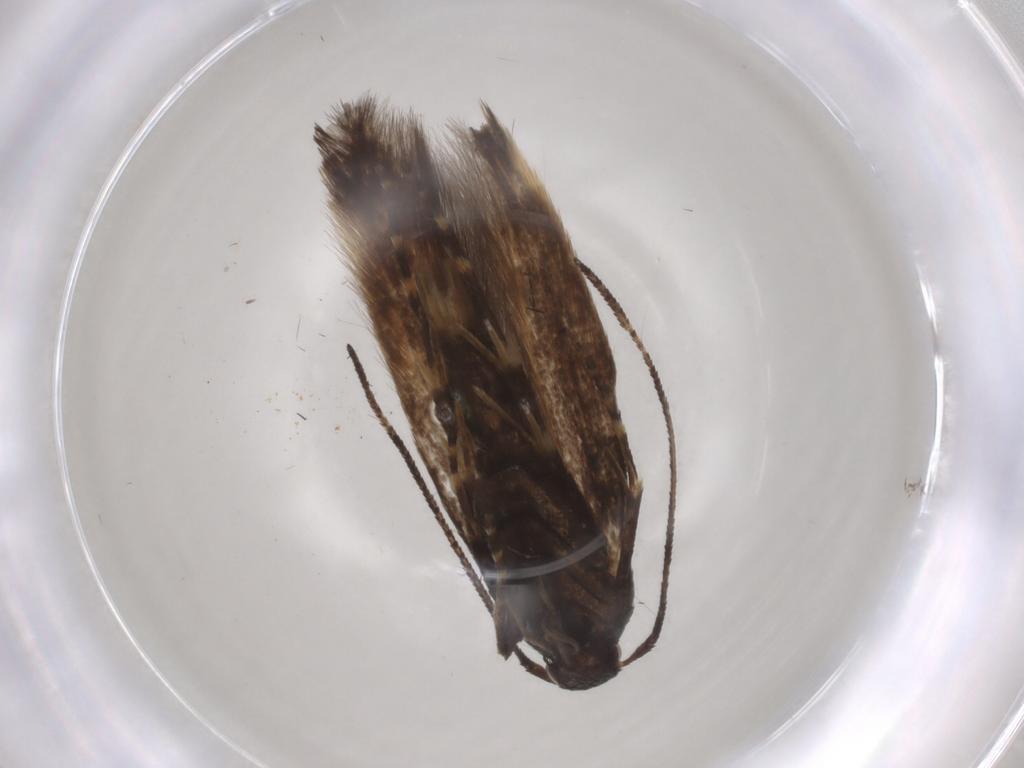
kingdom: Animalia
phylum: Arthropoda
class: Insecta
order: Lepidoptera
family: Momphidae
